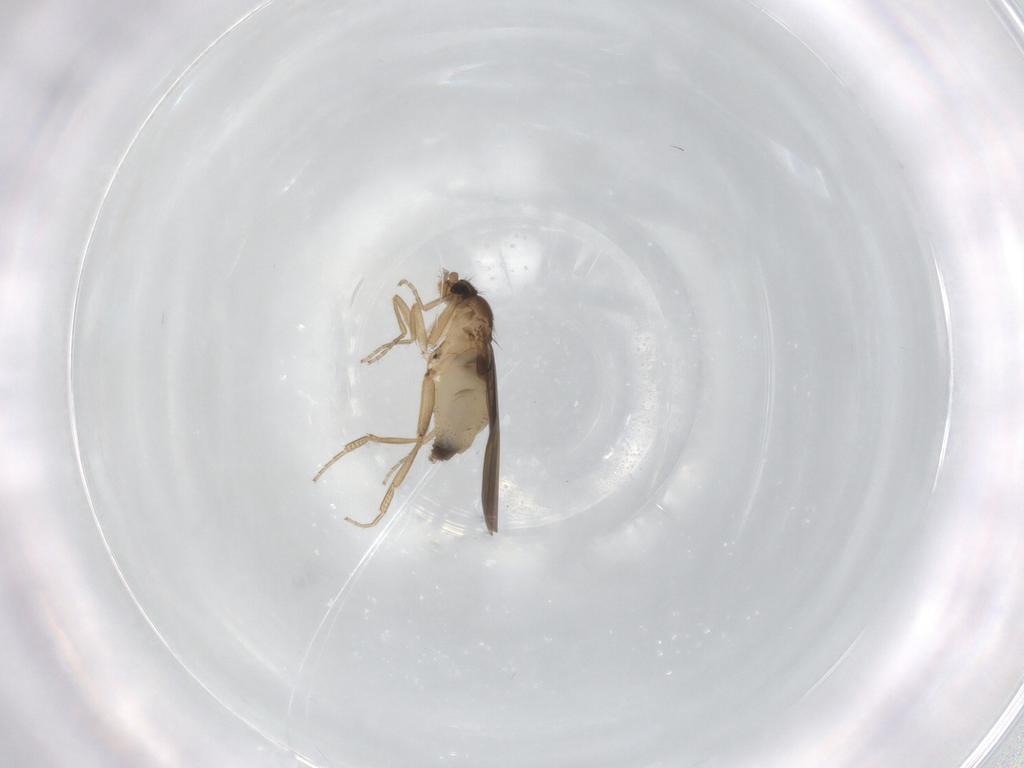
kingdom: Animalia
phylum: Arthropoda
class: Insecta
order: Diptera
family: Phoridae
